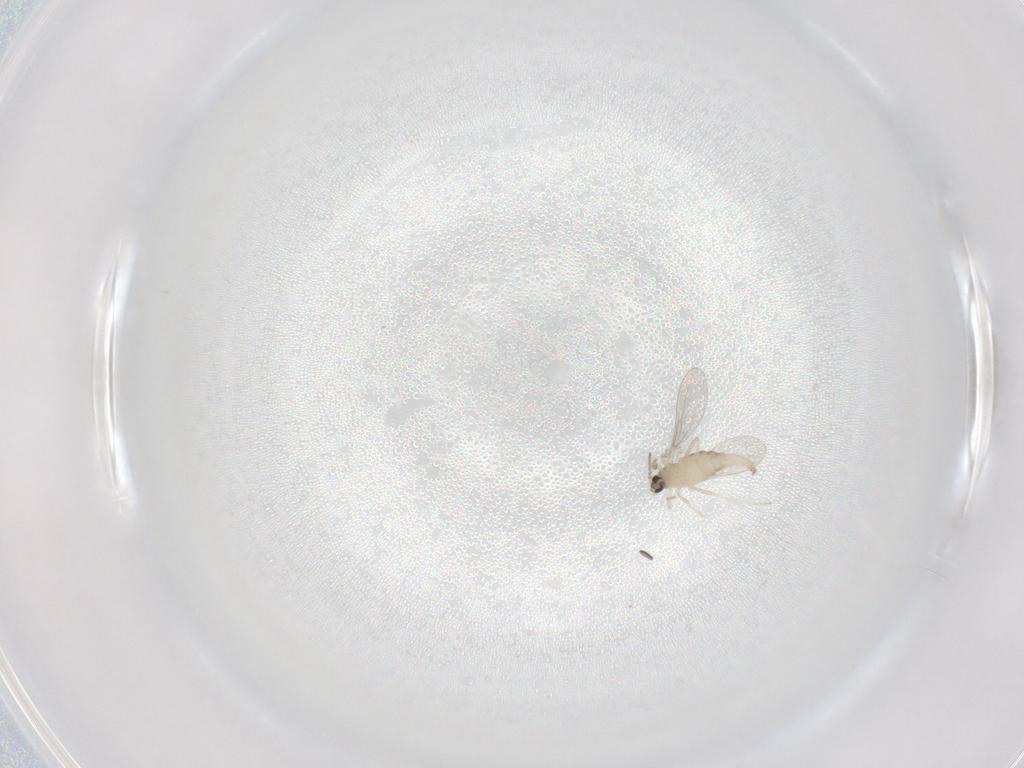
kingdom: Animalia
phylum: Arthropoda
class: Insecta
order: Diptera
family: Cecidomyiidae
